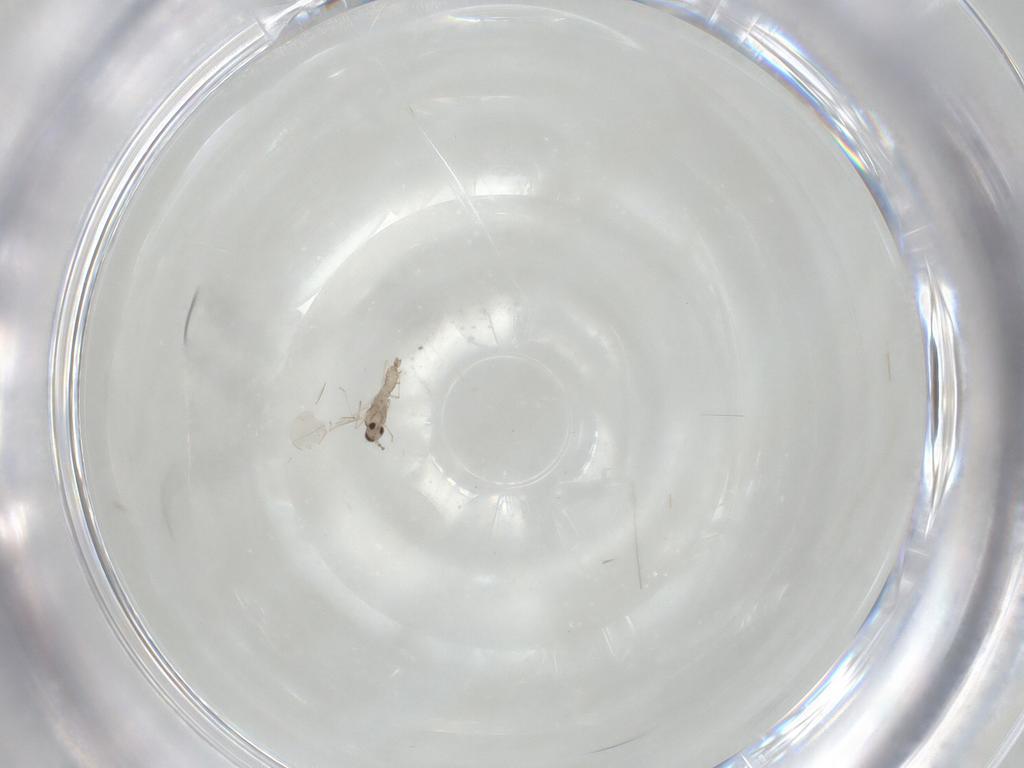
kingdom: Animalia
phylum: Arthropoda
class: Insecta
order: Diptera
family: Cecidomyiidae
